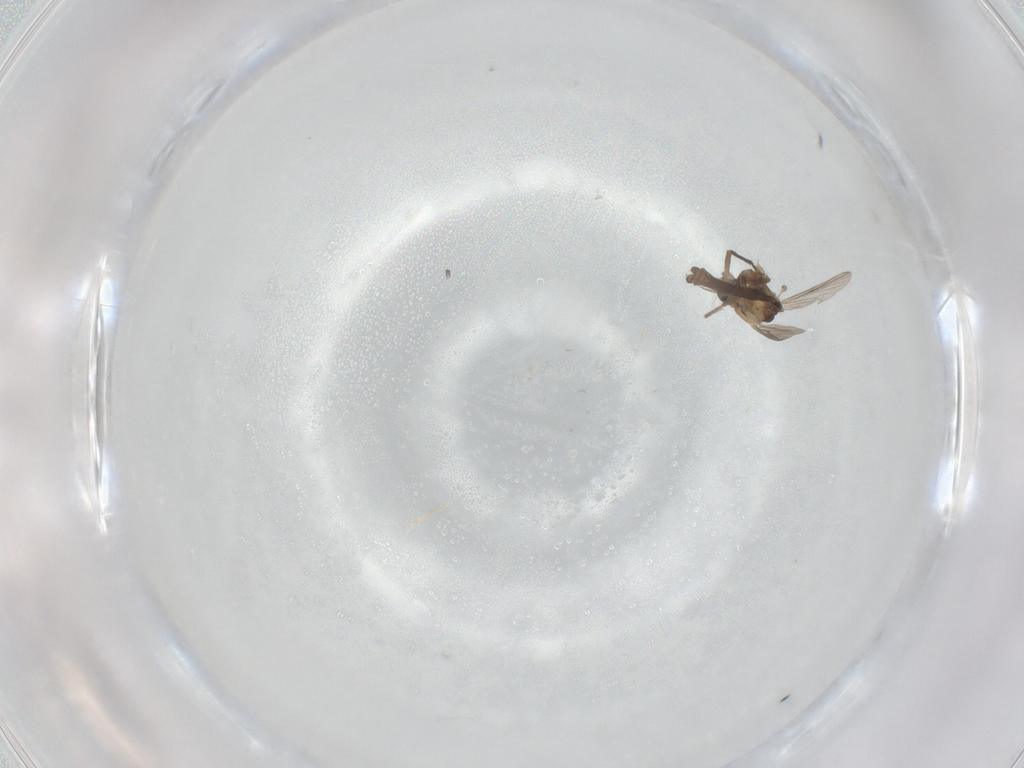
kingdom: Animalia
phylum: Arthropoda
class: Insecta
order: Diptera
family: Chironomidae
